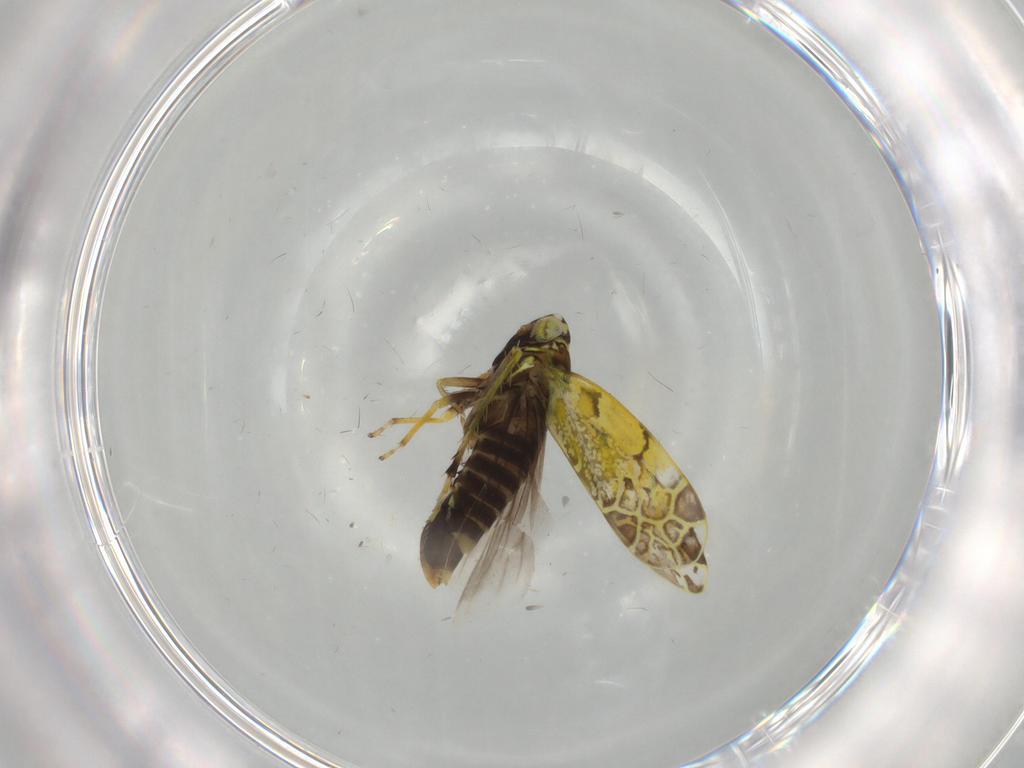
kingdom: Animalia
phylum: Arthropoda
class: Insecta
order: Hemiptera
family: Cicadellidae
